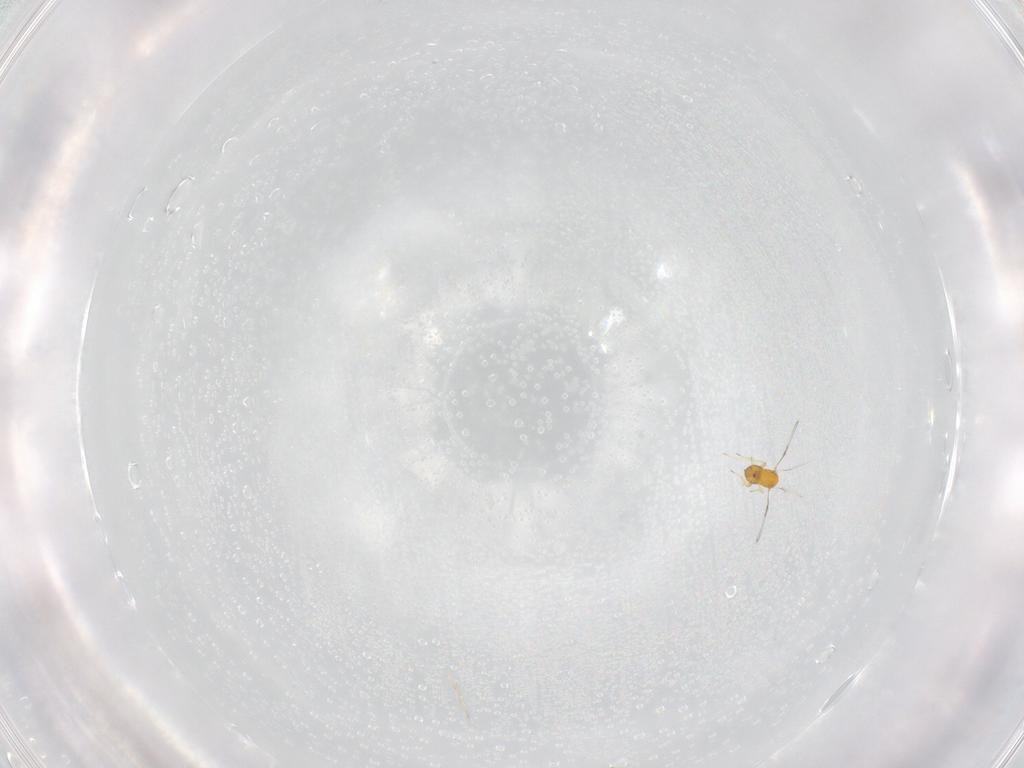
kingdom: Animalia
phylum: Arthropoda
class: Insecta
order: Hymenoptera
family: Trichogrammatidae
